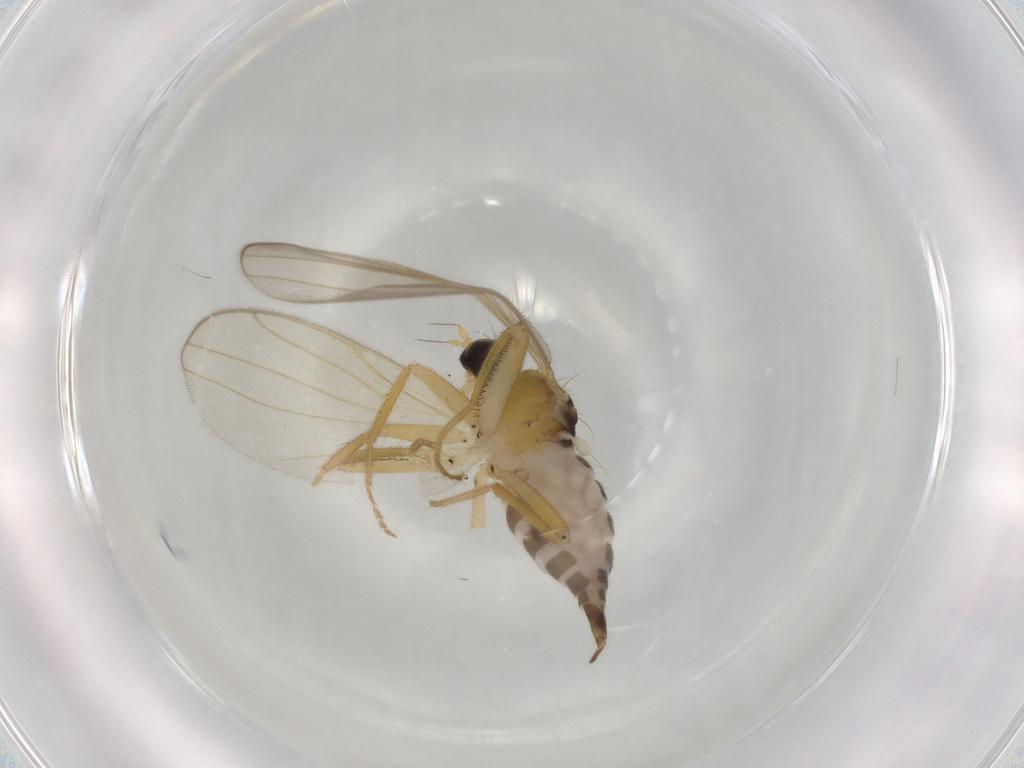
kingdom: Animalia
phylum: Arthropoda
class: Insecta
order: Diptera
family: Hybotidae
